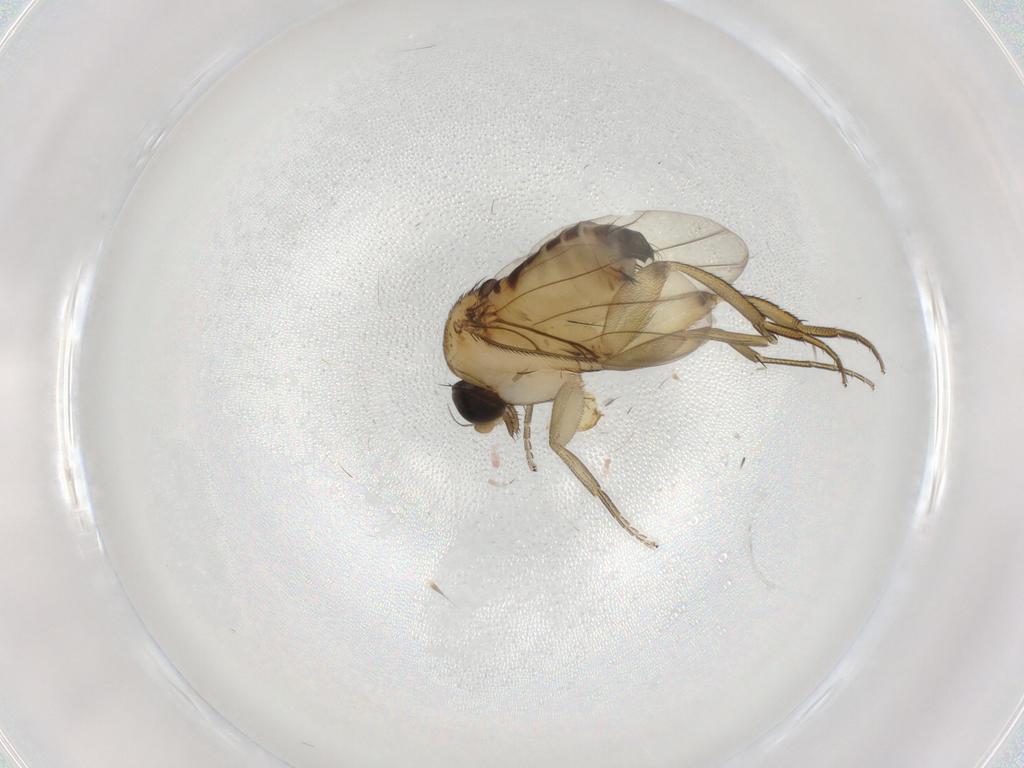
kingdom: Animalia
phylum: Arthropoda
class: Insecta
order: Diptera
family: Phoridae
